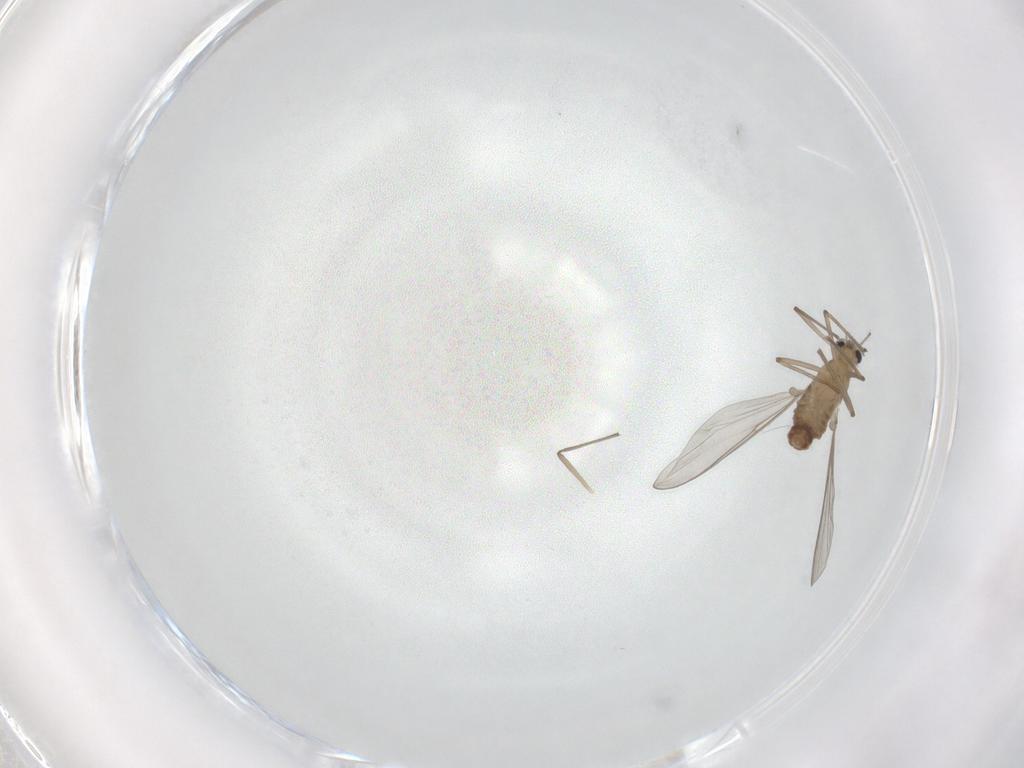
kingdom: Animalia
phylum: Arthropoda
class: Insecta
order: Diptera
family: Chironomidae
